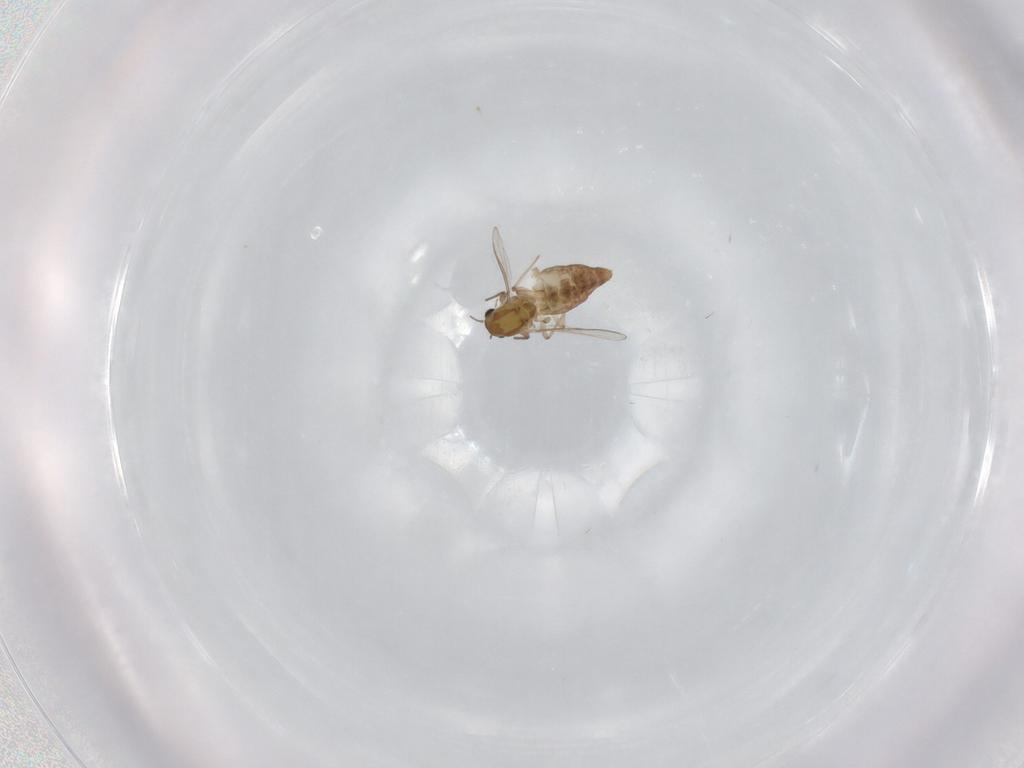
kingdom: Animalia
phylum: Arthropoda
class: Insecta
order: Diptera
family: Chironomidae
